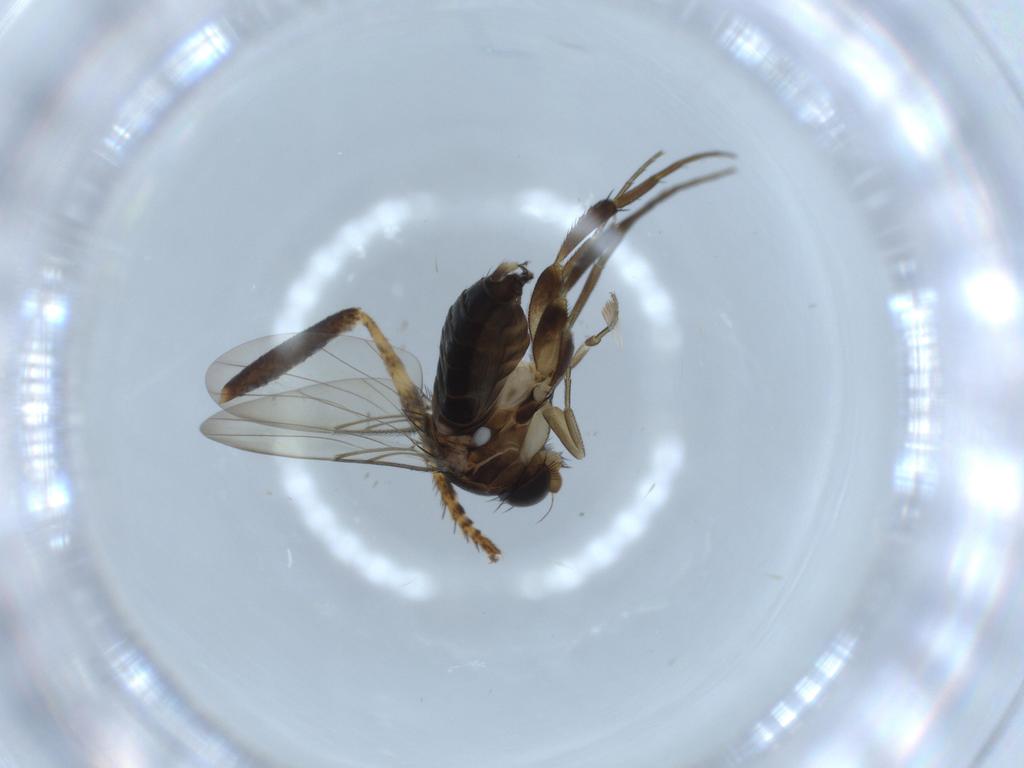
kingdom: Animalia
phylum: Arthropoda
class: Insecta
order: Diptera
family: Phoridae
